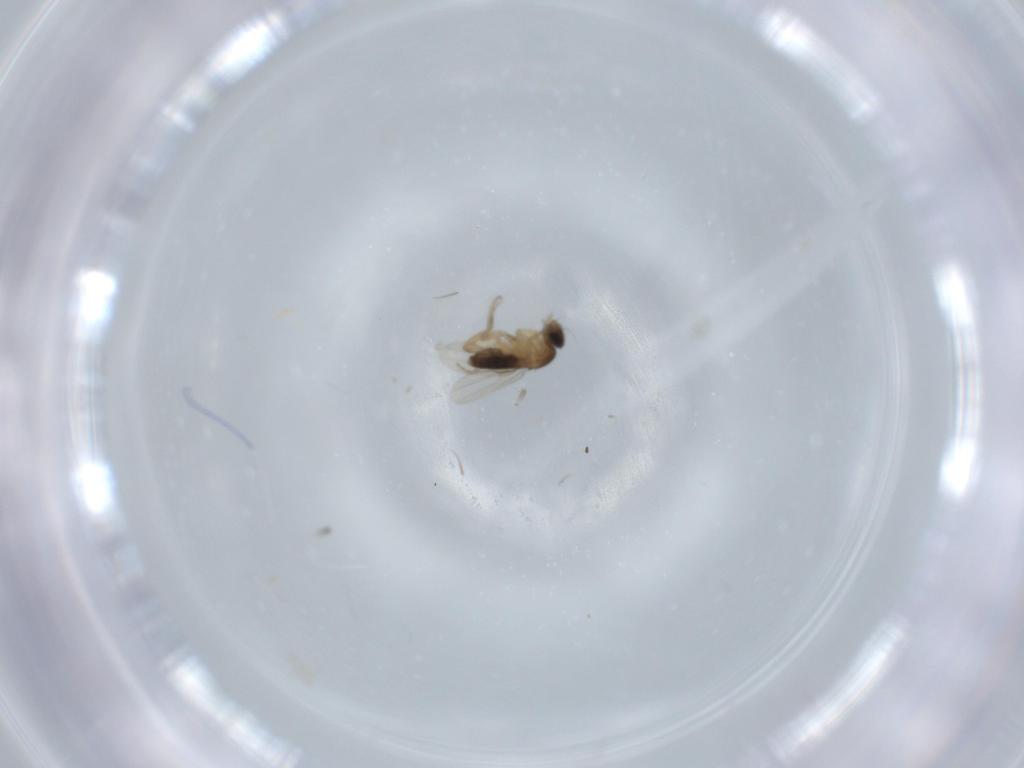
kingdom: Animalia
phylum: Arthropoda
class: Insecta
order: Diptera
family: Phoridae
